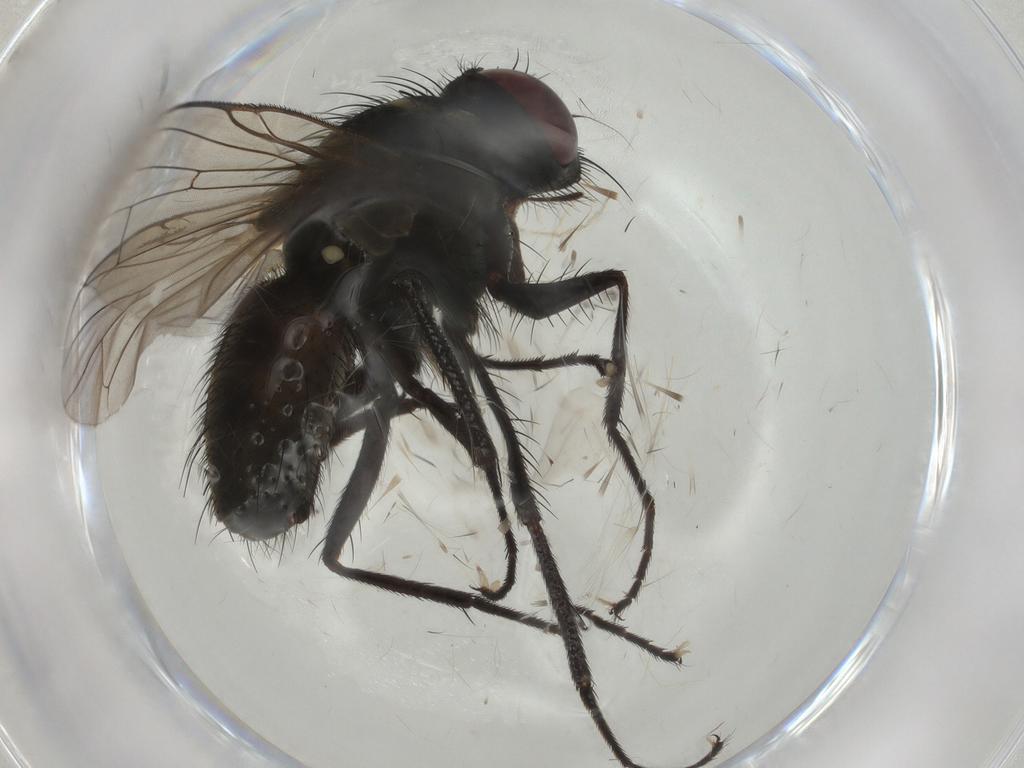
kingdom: Animalia
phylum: Arthropoda
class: Insecta
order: Diptera
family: Muscidae
